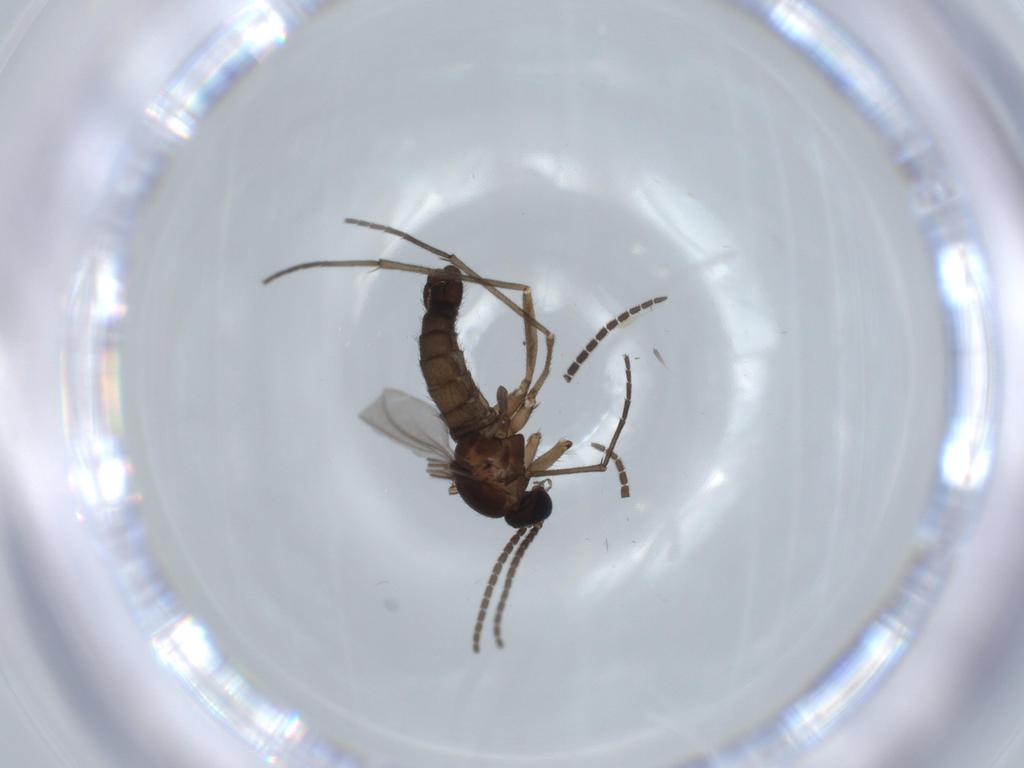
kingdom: Animalia
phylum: Arthropoda
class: Insecta
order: Diptera
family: Sciaridae
